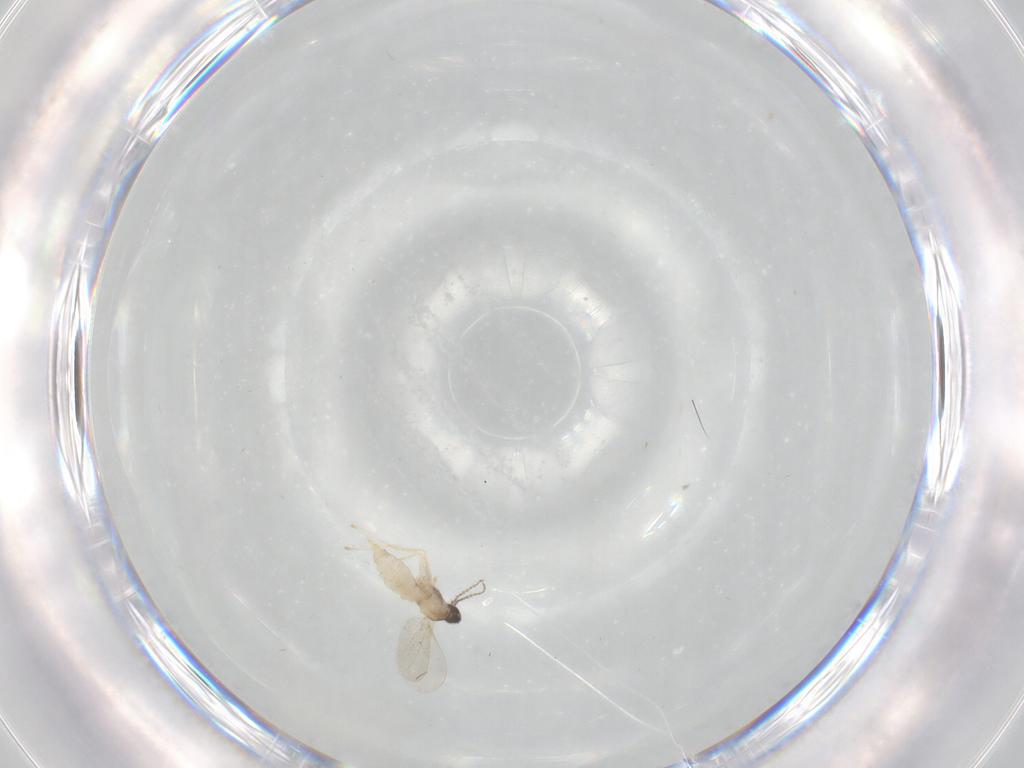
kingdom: Animalia
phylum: Arthropoda
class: Insecta
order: Diptera
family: Cecidomyiidae
